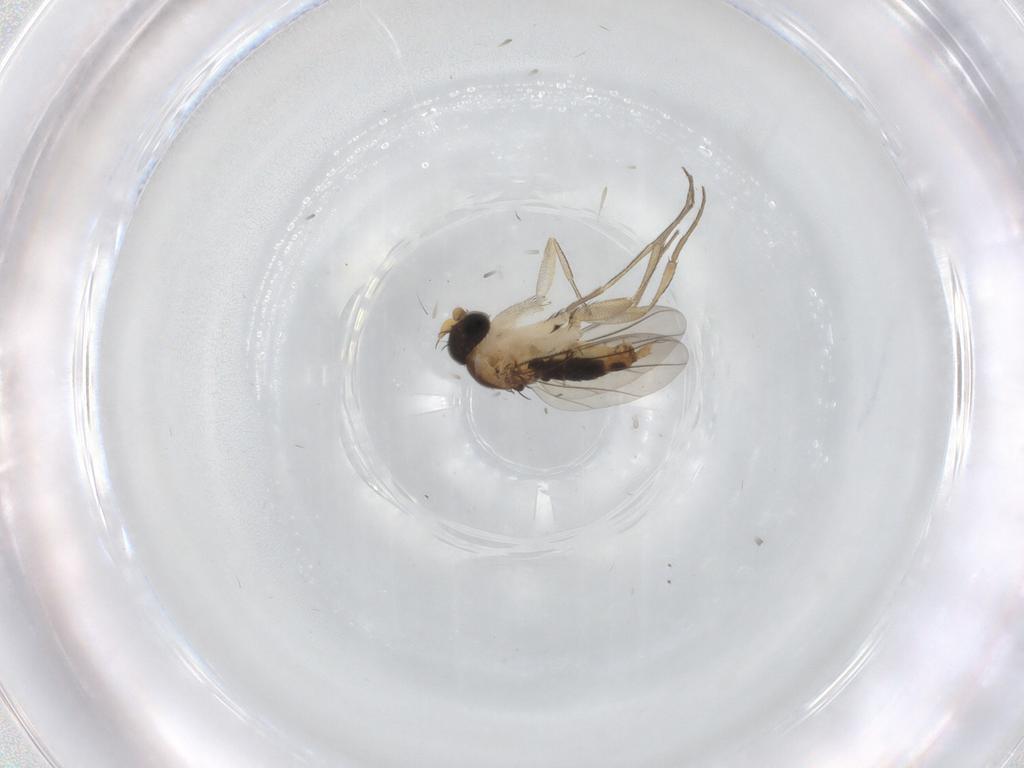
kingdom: Animalia
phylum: Arthropoda
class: Insecta
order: Diptera
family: Phoridae
